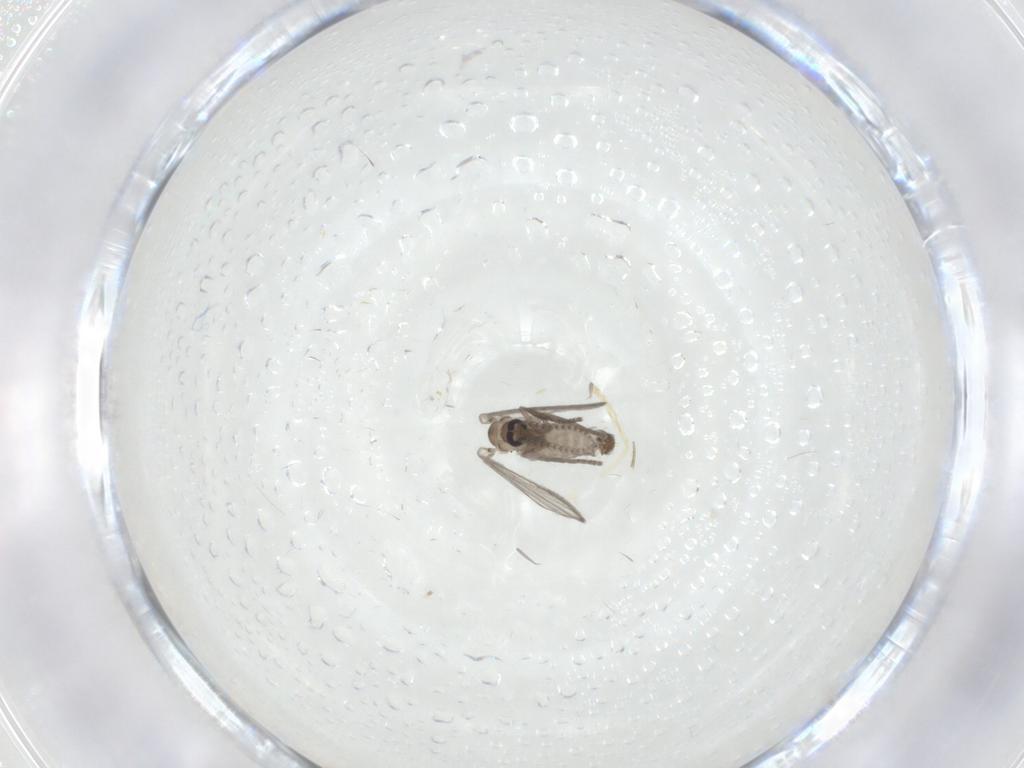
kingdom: Animalia
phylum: Arthropoda
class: Insecta
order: Diptera
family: Psychodidae
